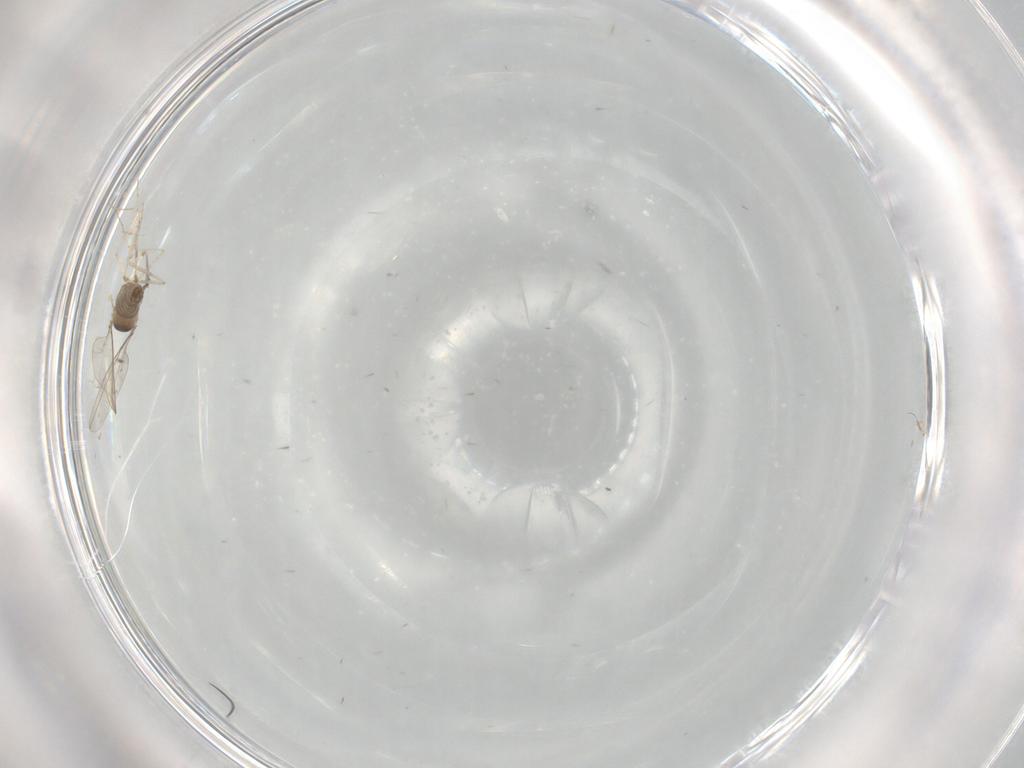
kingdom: Animalia
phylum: Arthropoda
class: Insecta
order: Diptera
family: Chironomidae
